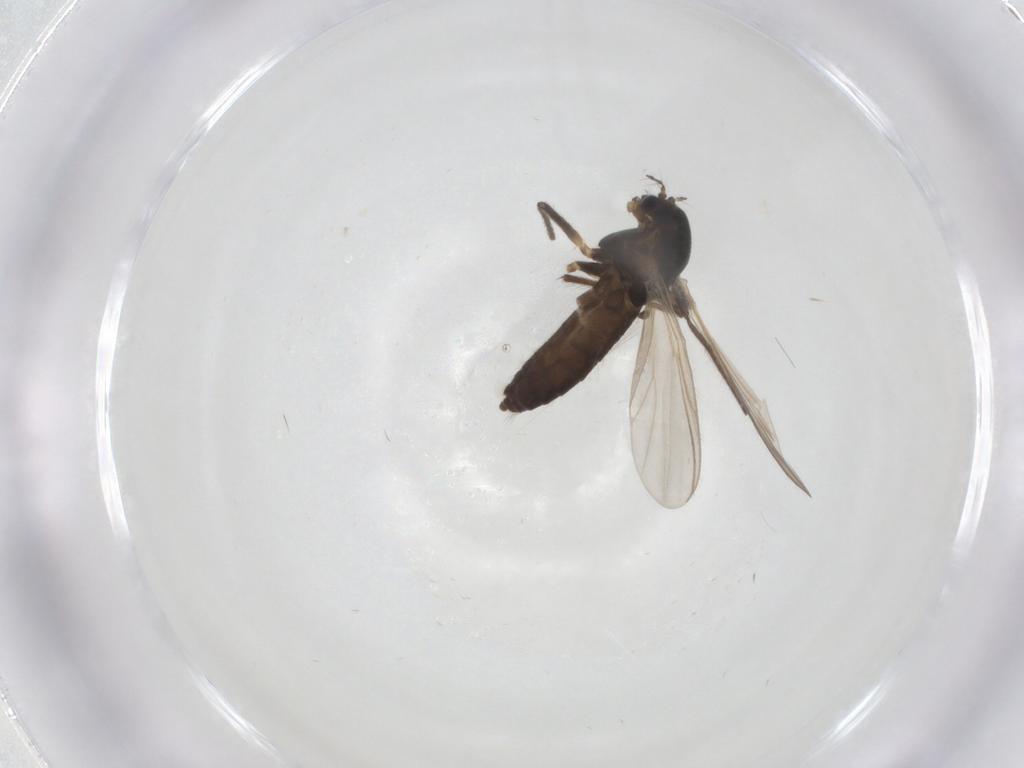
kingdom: Animalia
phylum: Arthropoda
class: Insecta
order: Diptera
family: Chironomidae
